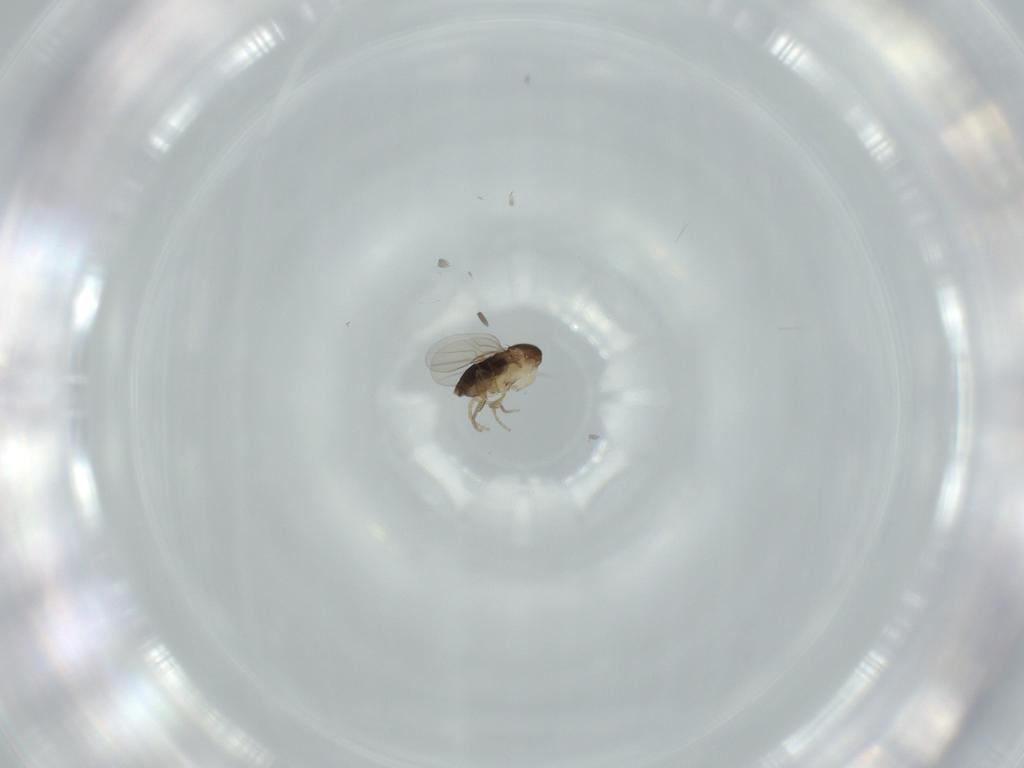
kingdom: Animalia
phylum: Arthropoda
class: Insecta
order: Diptera
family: Phoridae
